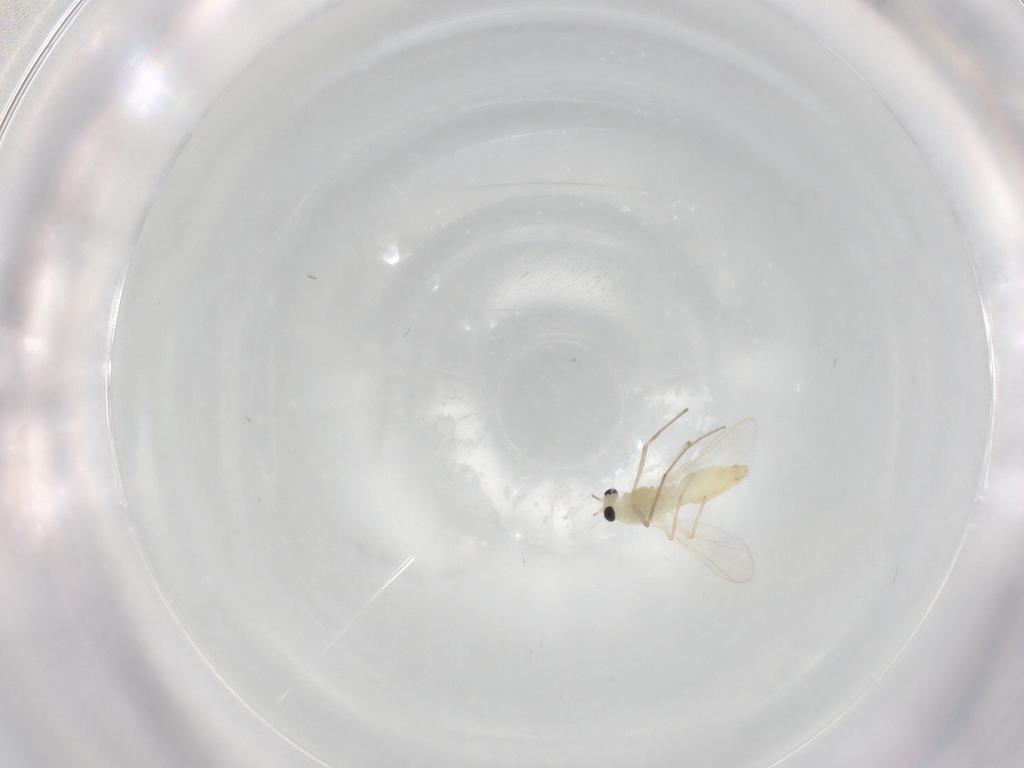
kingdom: Animalia
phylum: Arthropoda
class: Insecta
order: Diptera
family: Chironomidae
